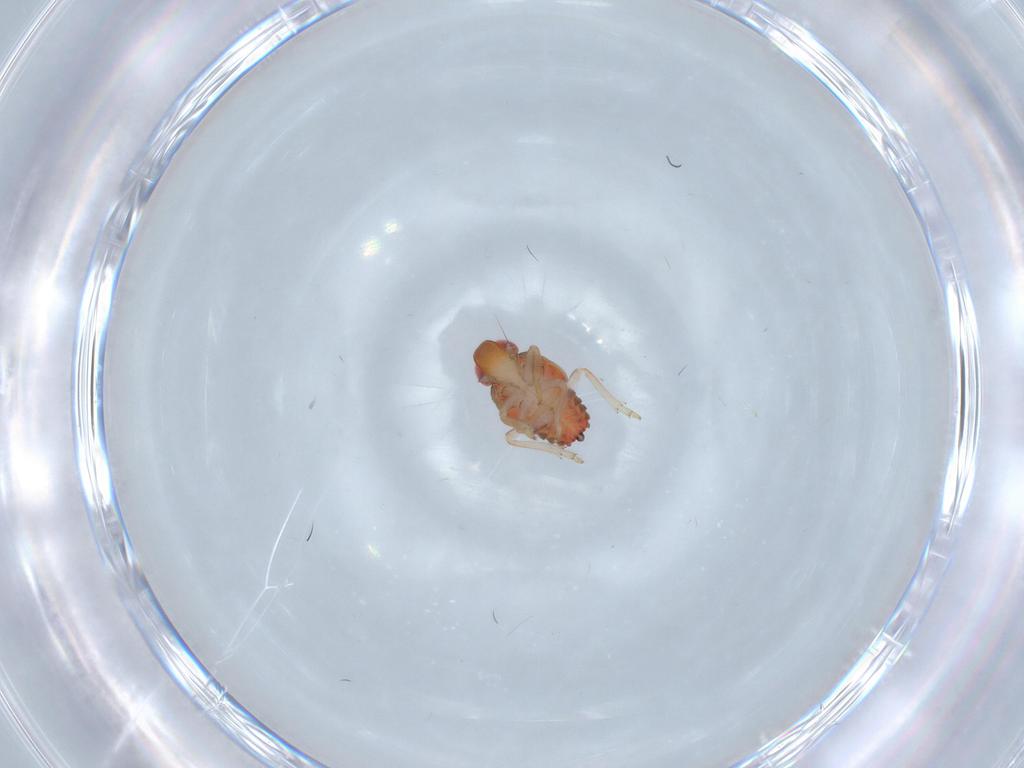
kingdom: Animalia
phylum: Arthropoda
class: Insecta
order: Hemiptera
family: Issidae
